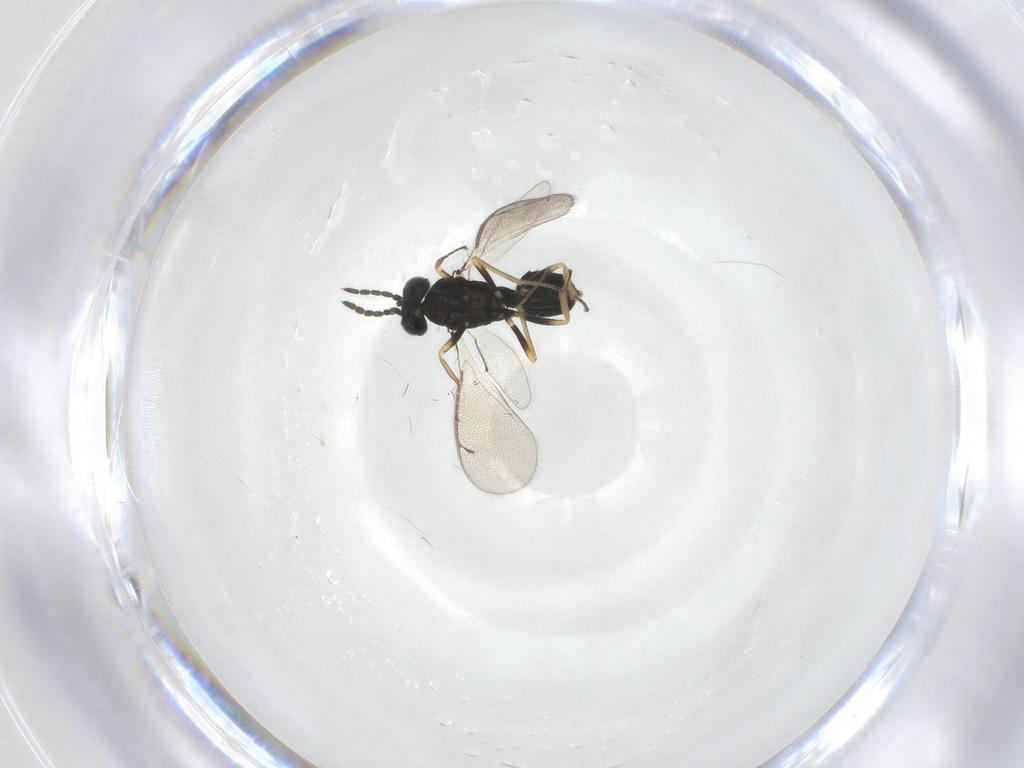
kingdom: Animalia
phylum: Arthropoda
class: Insecta
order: Hymenoptera
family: Eulophidae
